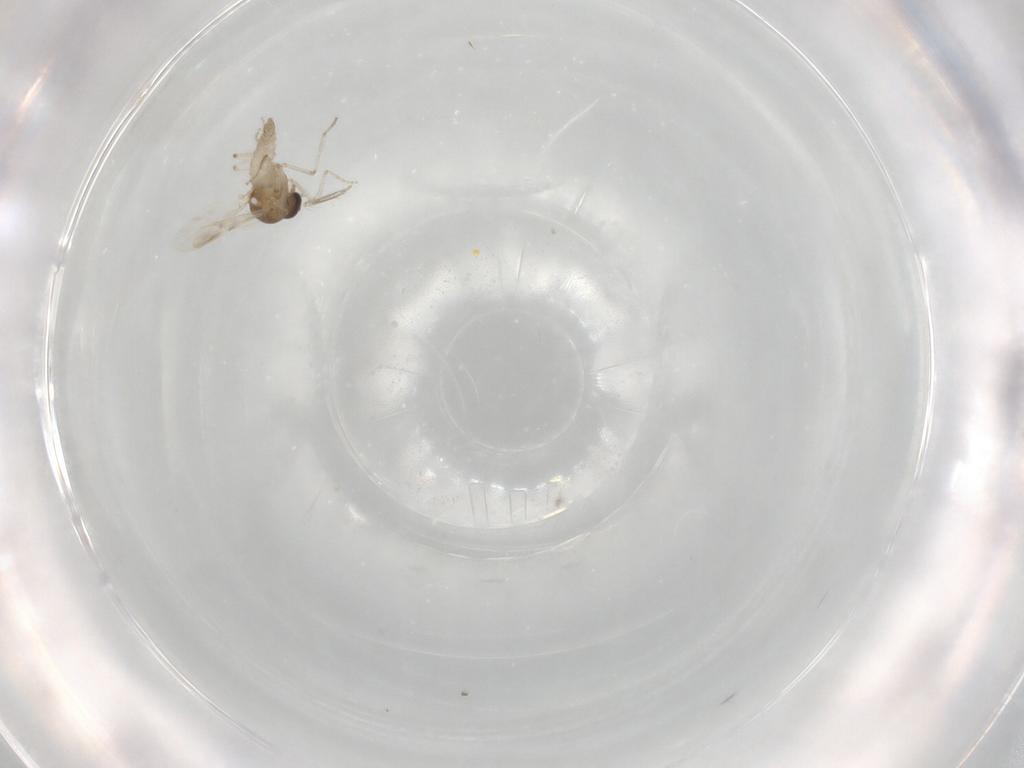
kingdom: Animalia
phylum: Arthropoda
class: Insecta
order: Diptera
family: Ceratopogonidae
